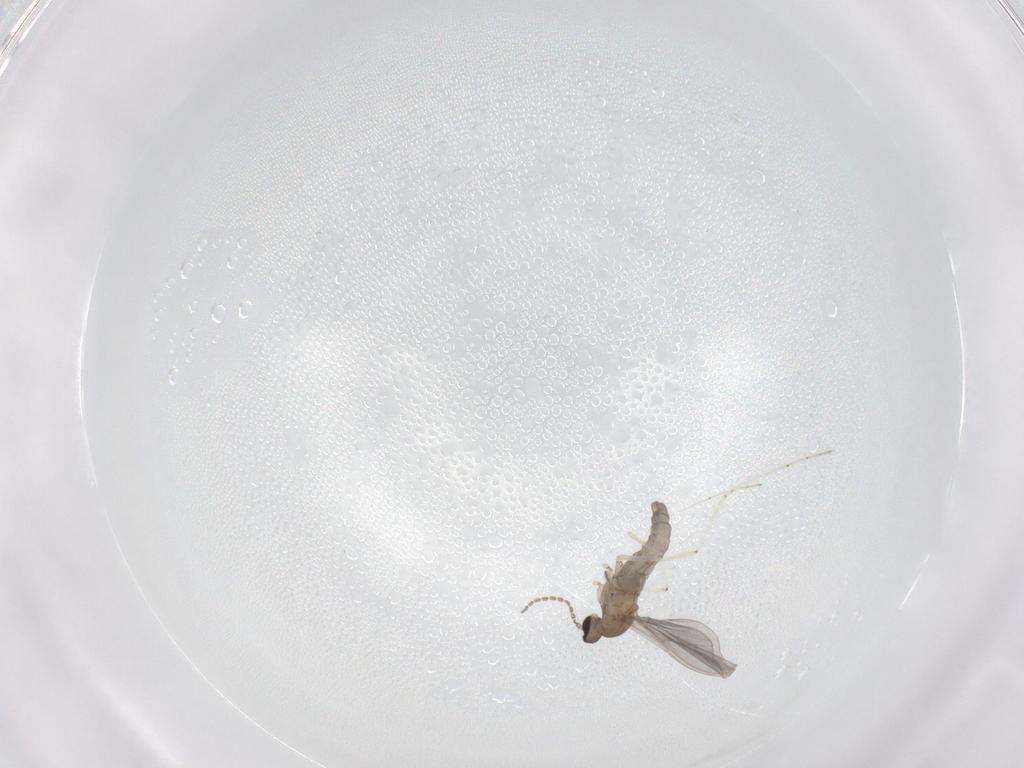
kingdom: Animalia
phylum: Arthropoda
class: Insecta
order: Diptera
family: Cecidomyiidae
